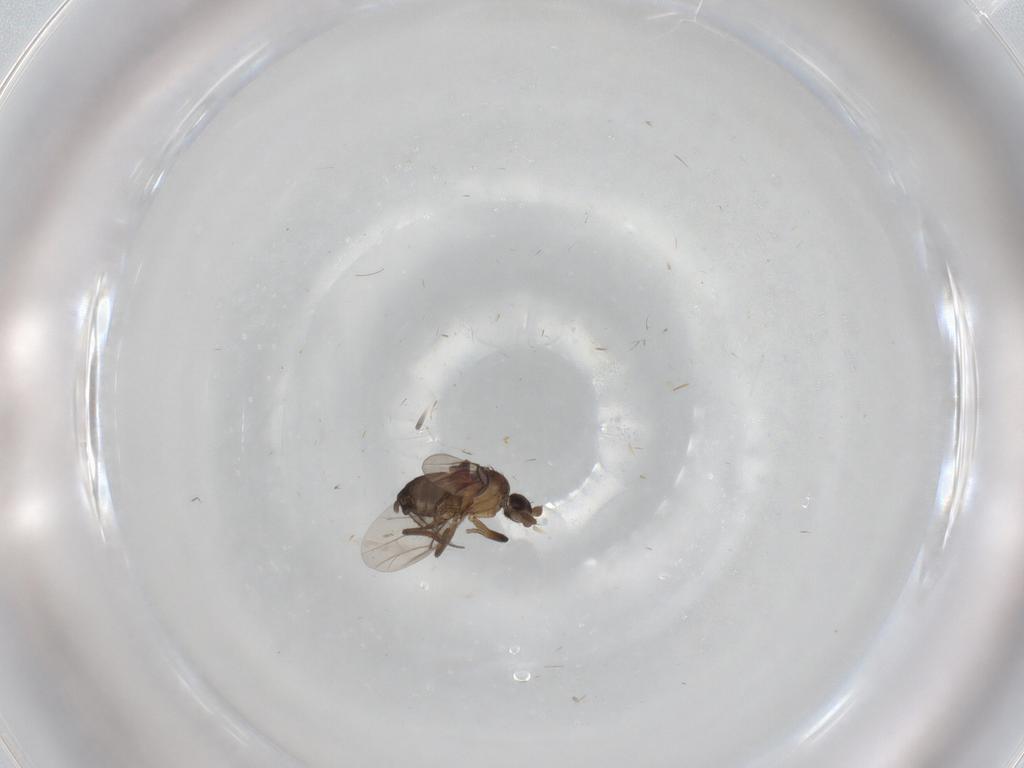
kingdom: Animalia
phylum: Arthropoda
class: Insecta
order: Diptera
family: Phoridae
